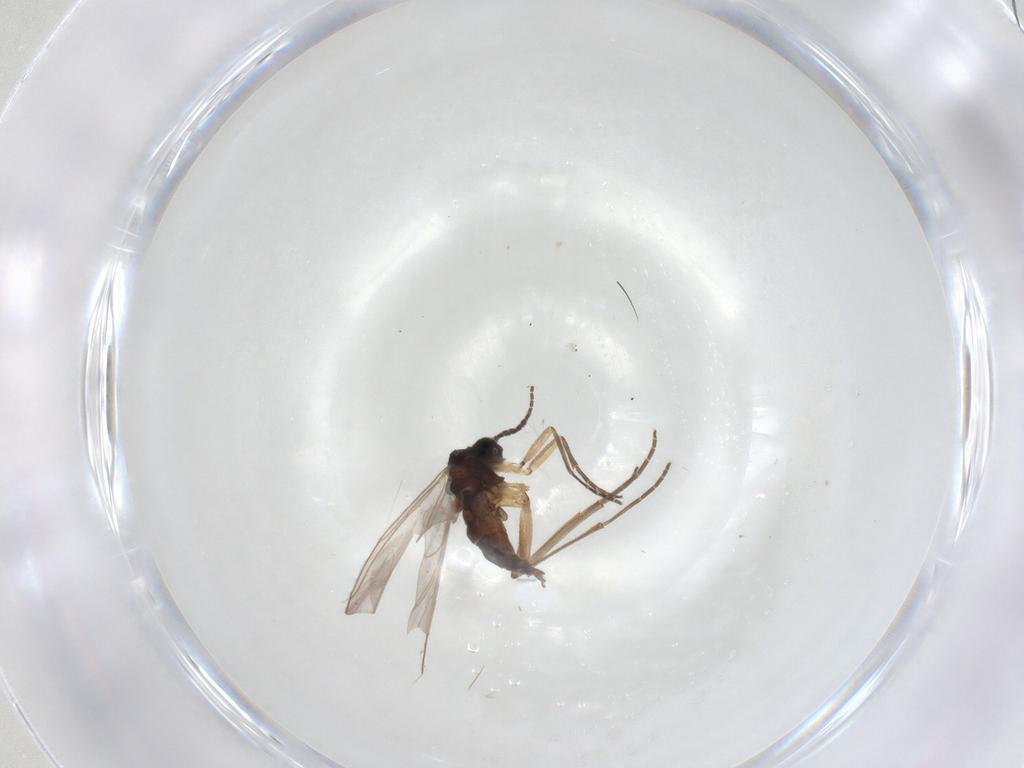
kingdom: Animalia
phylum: Arthropoda
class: Insecta
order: Diptera
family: Sciaridae
